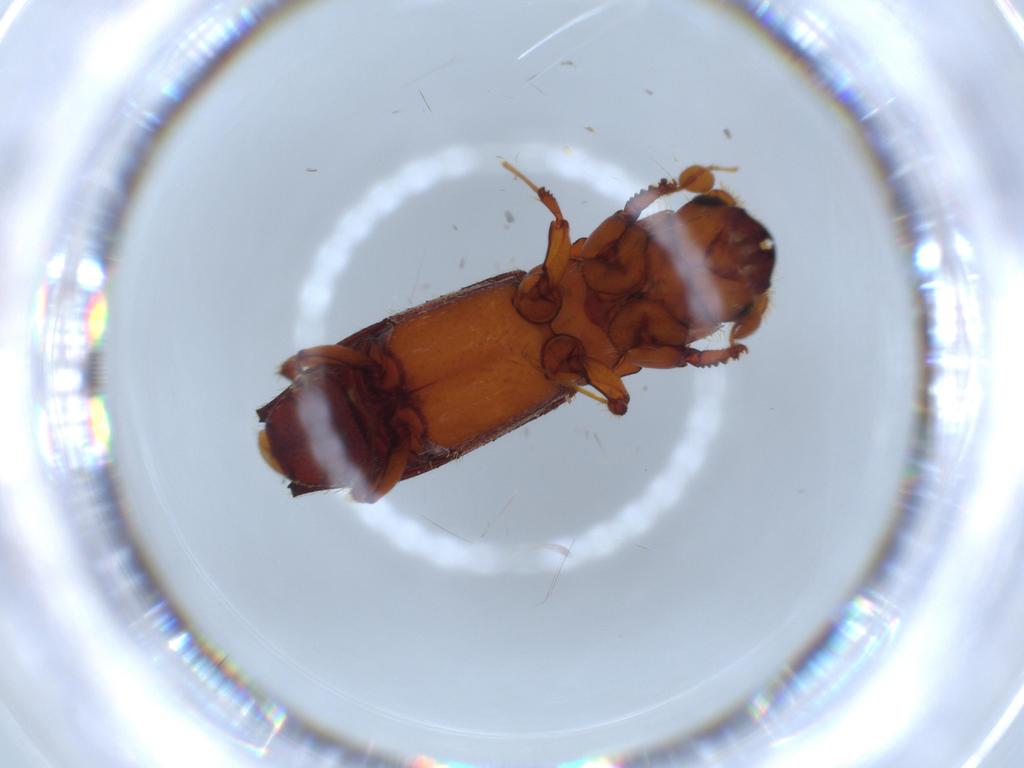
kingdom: Animalia
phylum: Arthropoda
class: Insecta
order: Coleoptera
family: Curculionidae
